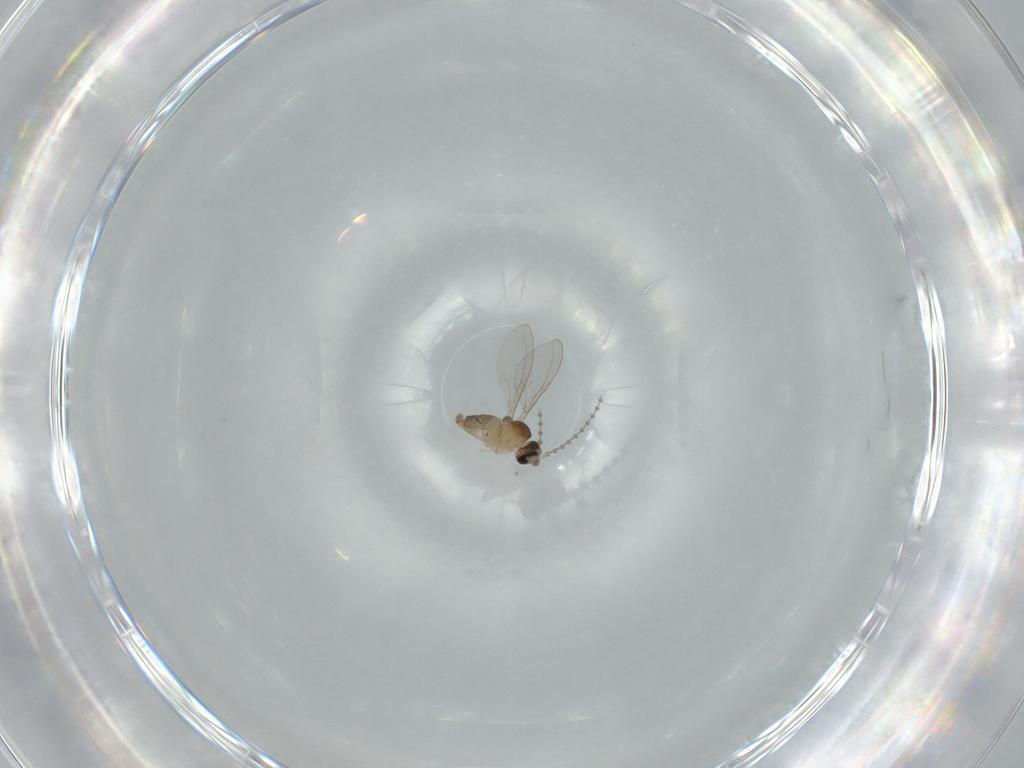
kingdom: Animalia
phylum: Arthropoda
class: Insecta
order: Diptera
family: Cecidomyiidae
